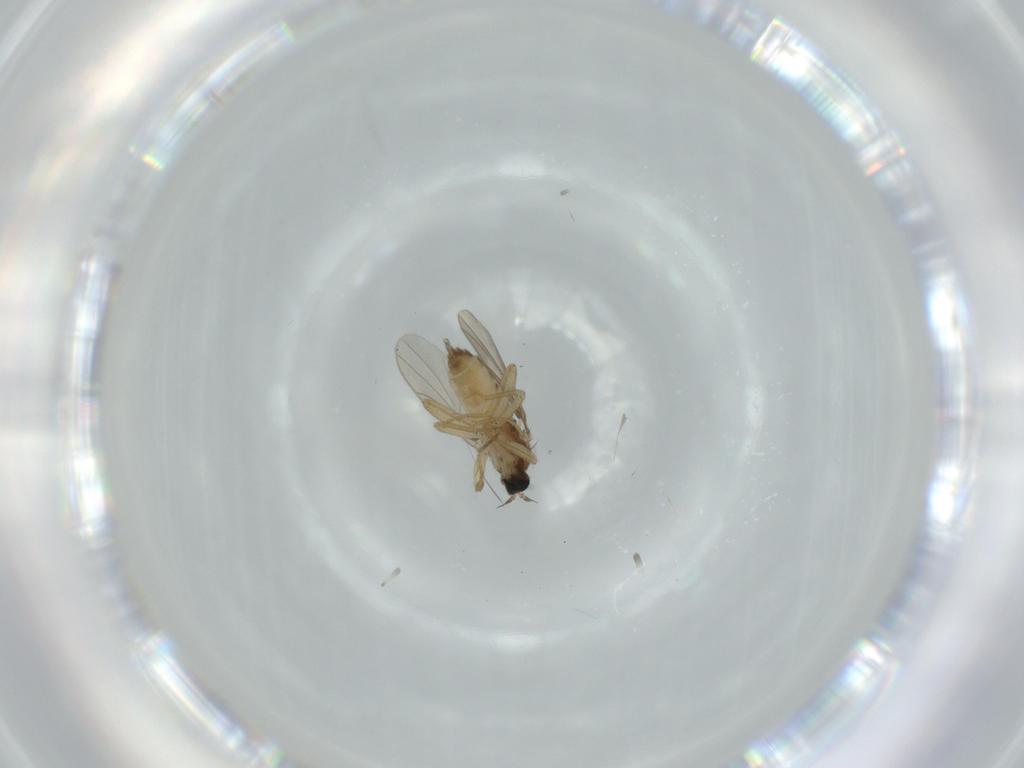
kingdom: Animalia
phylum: Arthropoda
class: Insecta
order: Diptera
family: Hybotidae
